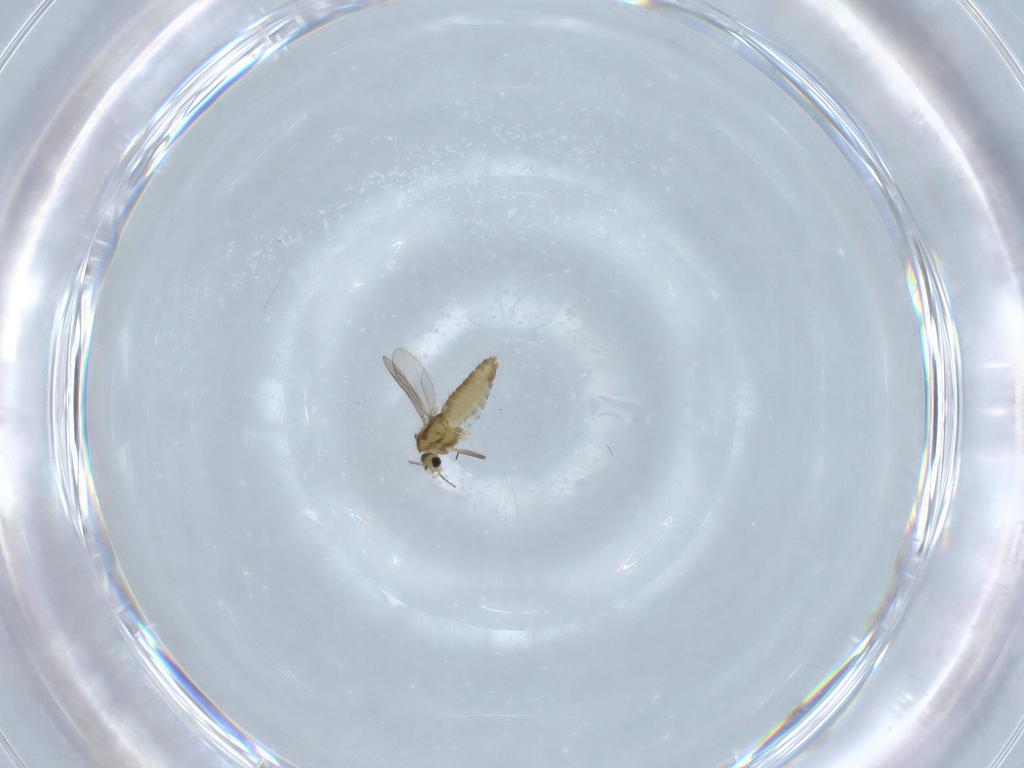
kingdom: Animalia
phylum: Arthropoda
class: Insecta
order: Diptera
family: Chironomidae
